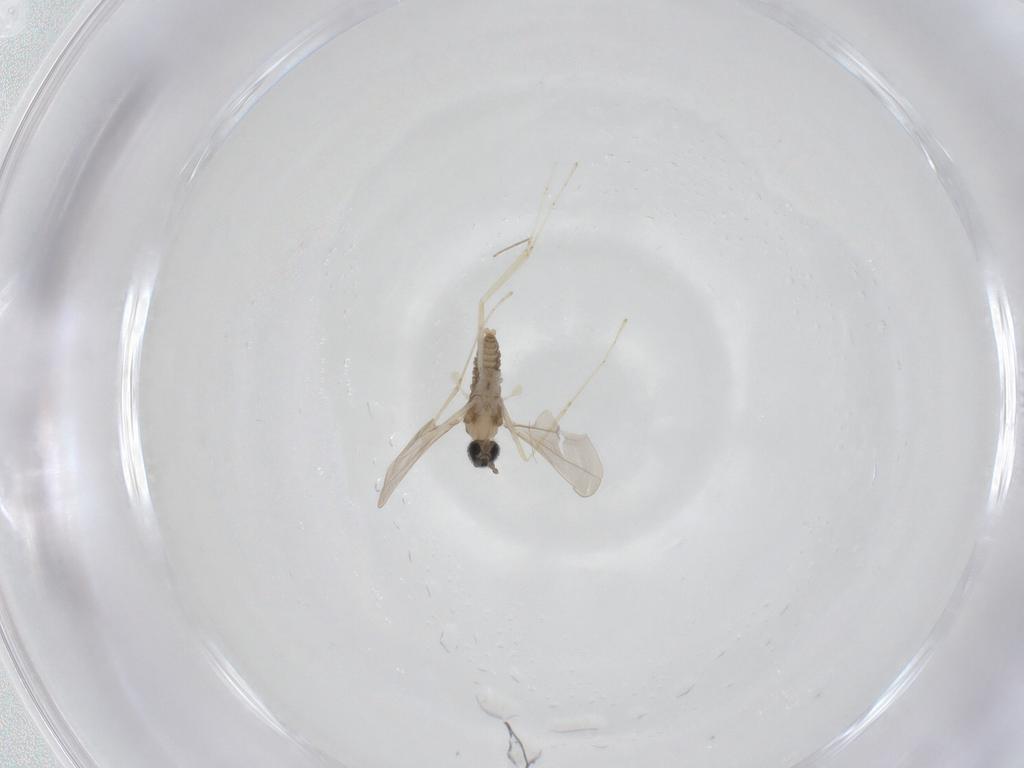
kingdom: Animalia
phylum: Arthropoda
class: Insecta
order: Diptera
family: Cecidomyiidae
